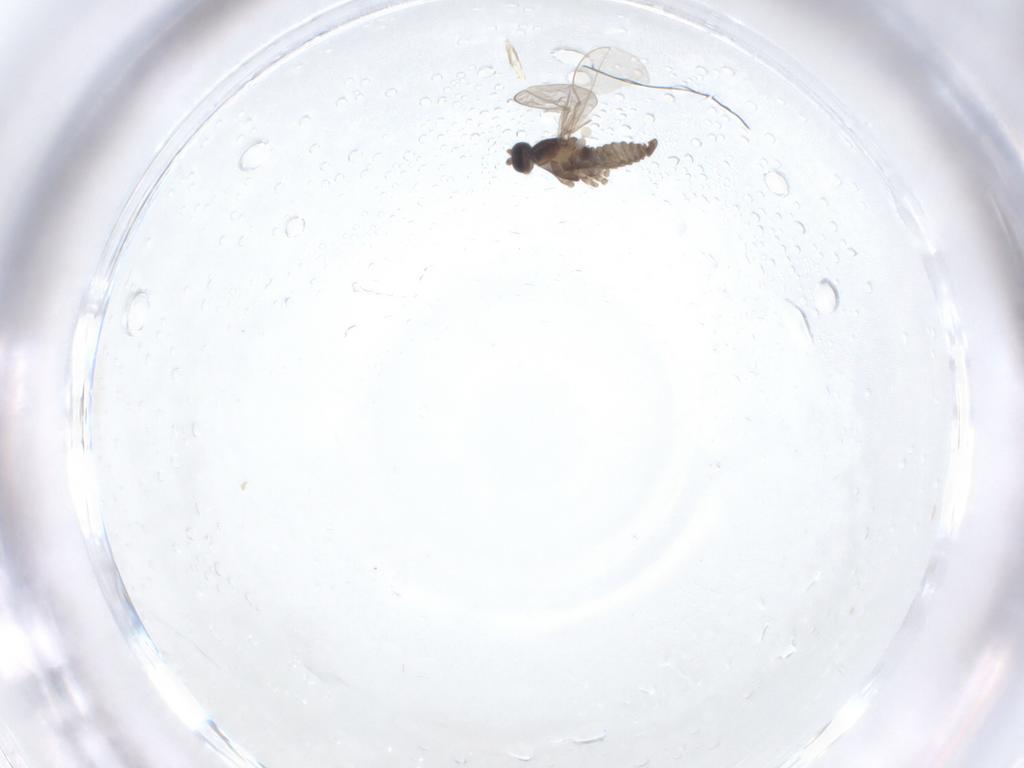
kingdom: Animalia
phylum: Arthropoda
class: Insecta
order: Diptera
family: Cecidomyiidae
